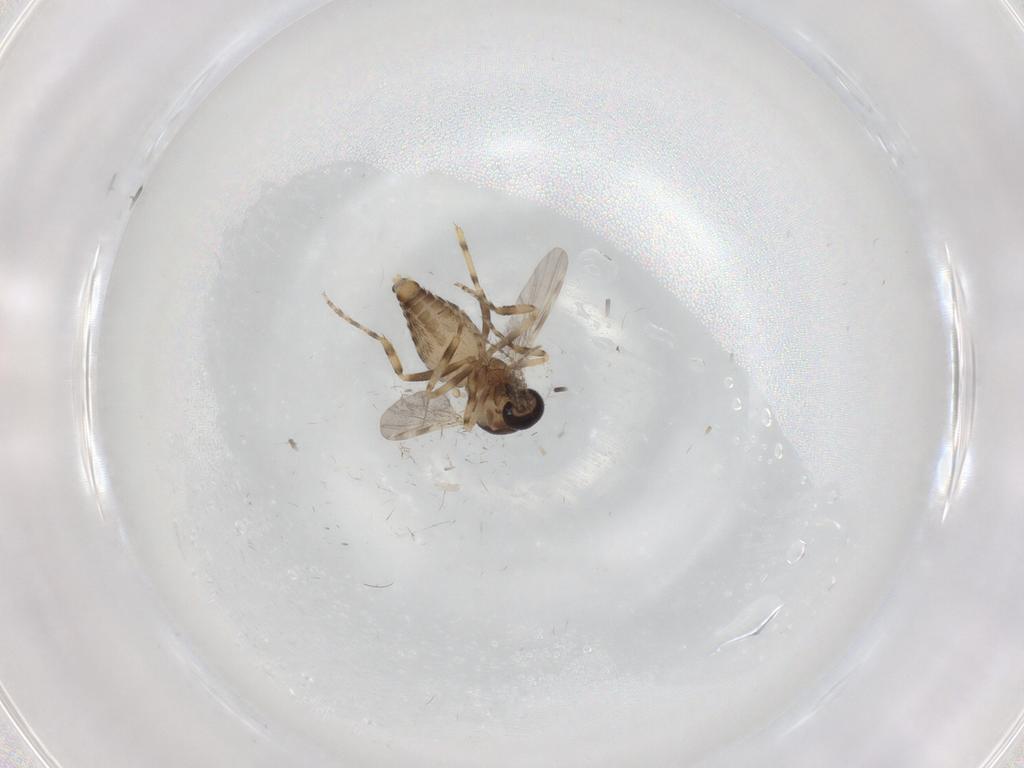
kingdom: Animalia
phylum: Arthropoda
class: Insecta
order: Diptera
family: Ceratopogonidae
